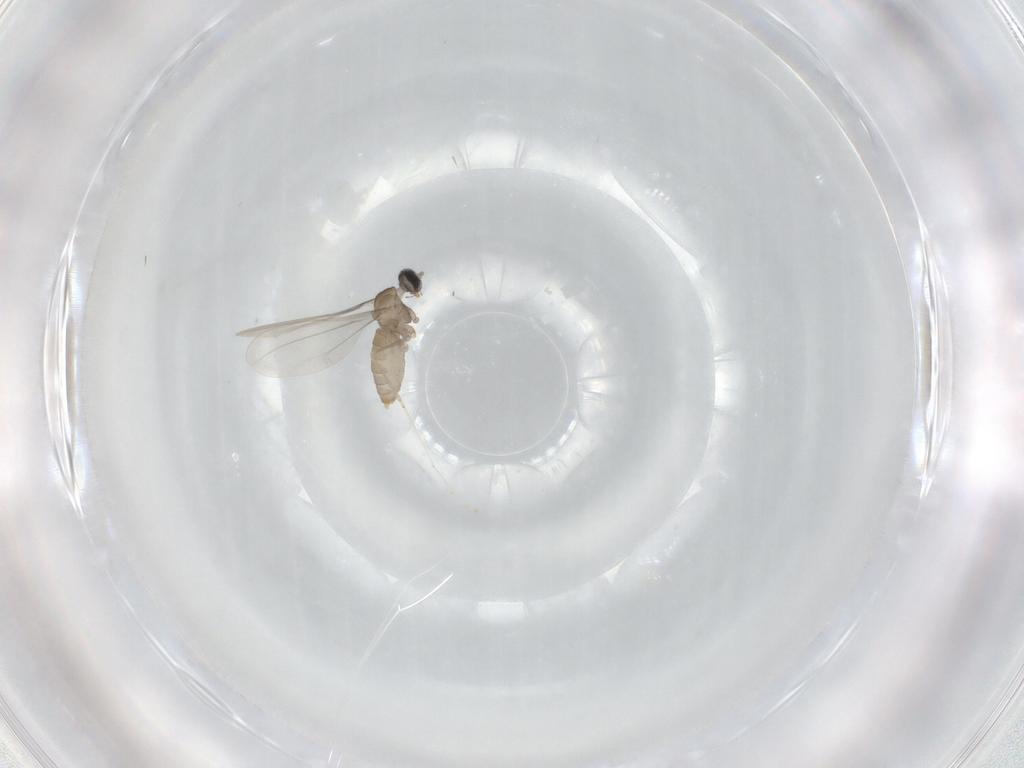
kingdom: Animalia
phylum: Arthropoda
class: Insecta
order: Diptera
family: Cecidomyiidae
